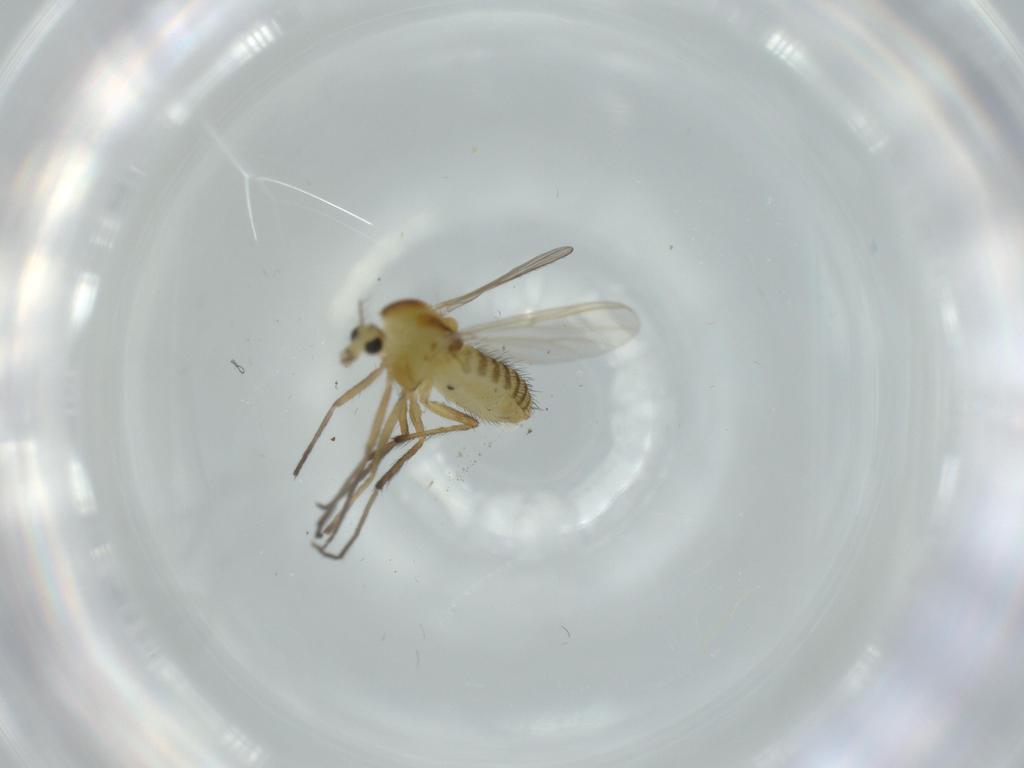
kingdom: Animalia
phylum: Arthropoda
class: Insecta
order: Diptera
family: Chironomidae
